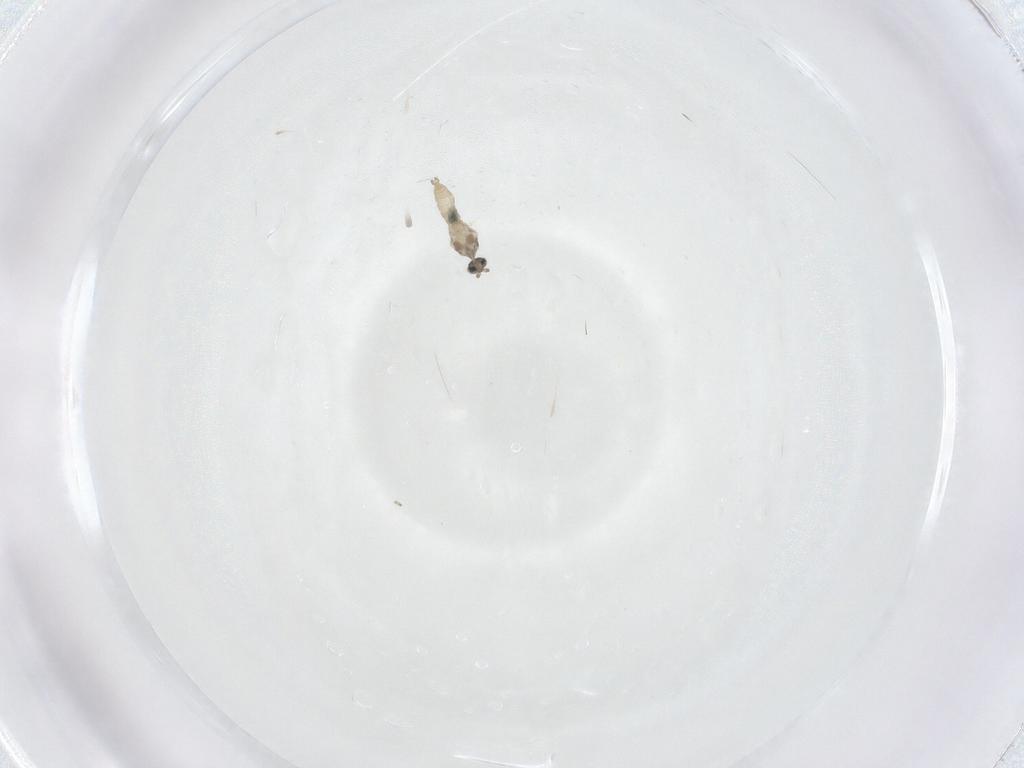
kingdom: Animalia
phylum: Arthropoda
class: Insecta
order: Diptera
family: Cecidomyiidae
